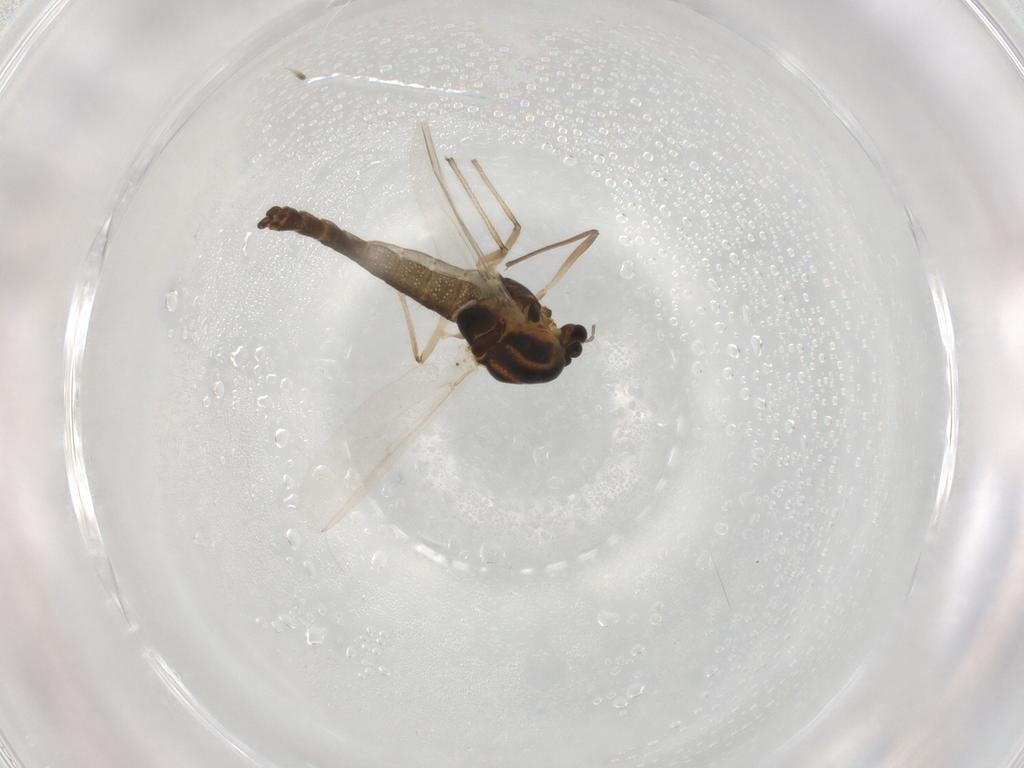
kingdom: Animalia
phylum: Arthropoda
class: Insecta
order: Diptera
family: Chironomidae
